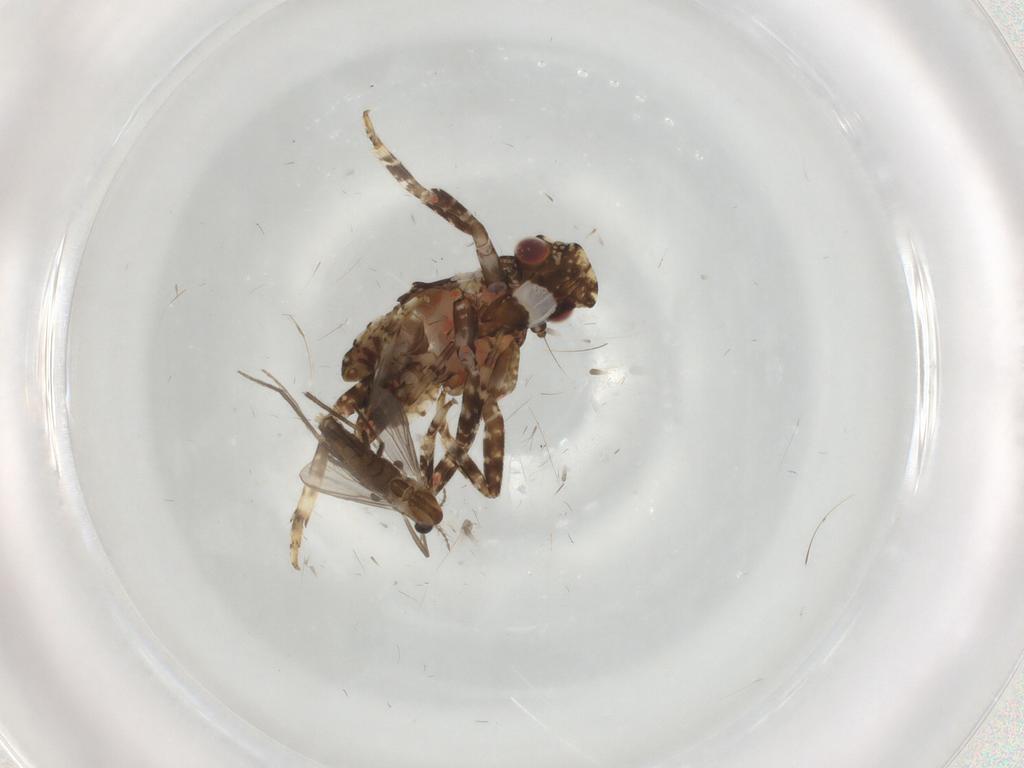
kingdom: Animalia
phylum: Arthropoda
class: Insecta
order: Diptera
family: Chironomidae
